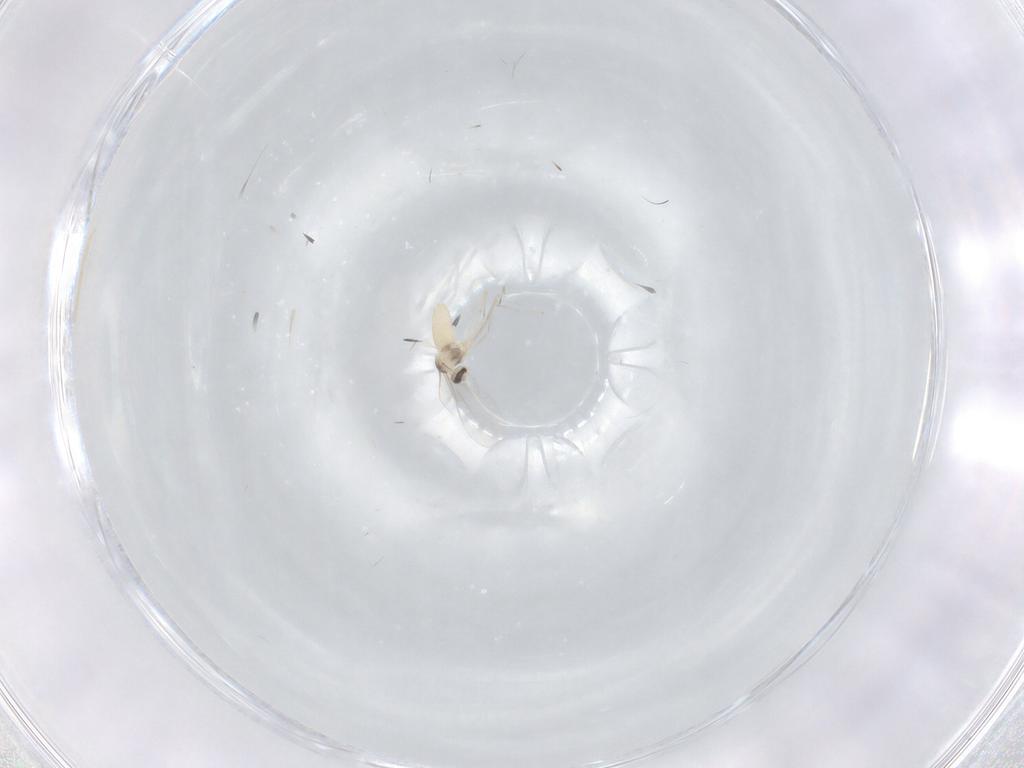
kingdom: Animalia
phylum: Arthropoda
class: Insecta
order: Diptera
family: Cecidomyiidae
